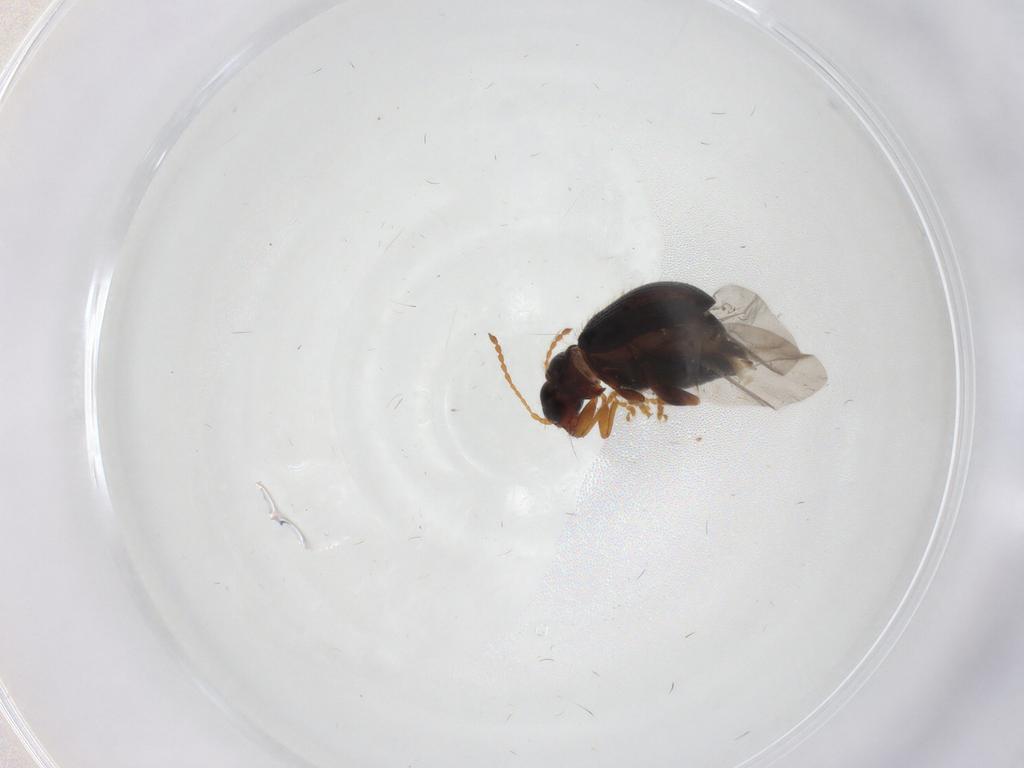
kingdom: Animalia
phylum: Arthropoda
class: Insecta
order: Coleoptera
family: Chrysomelidae
